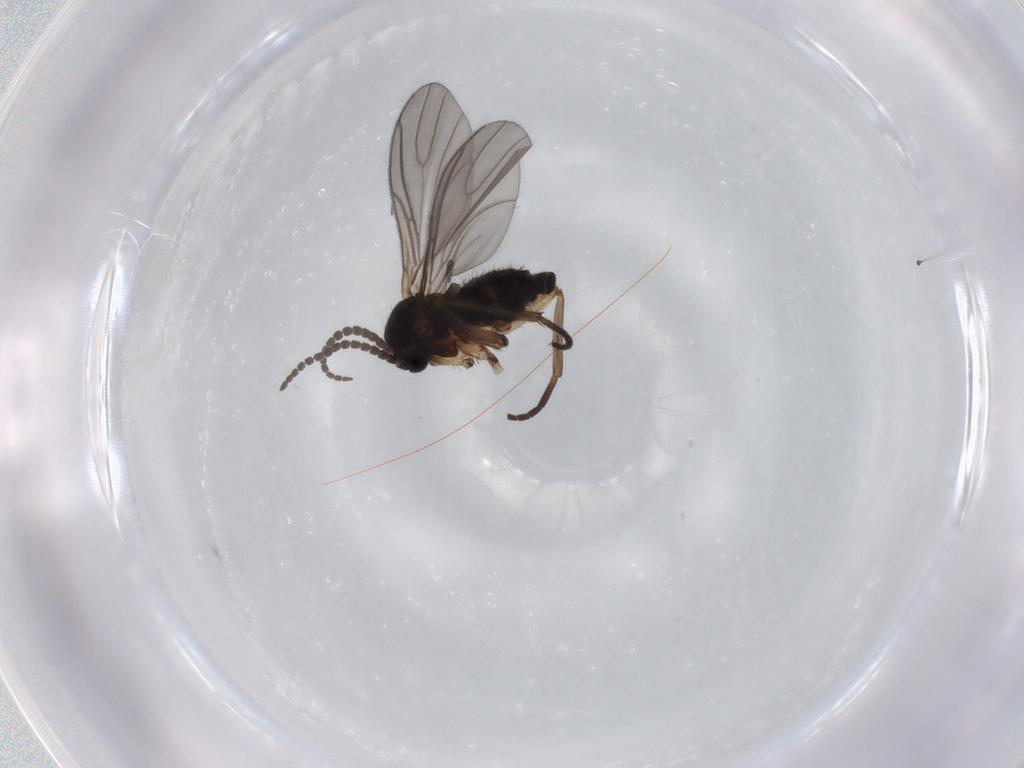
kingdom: Animalia
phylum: Arthropoda
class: Insecta
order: Diptera
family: Sciaridae
